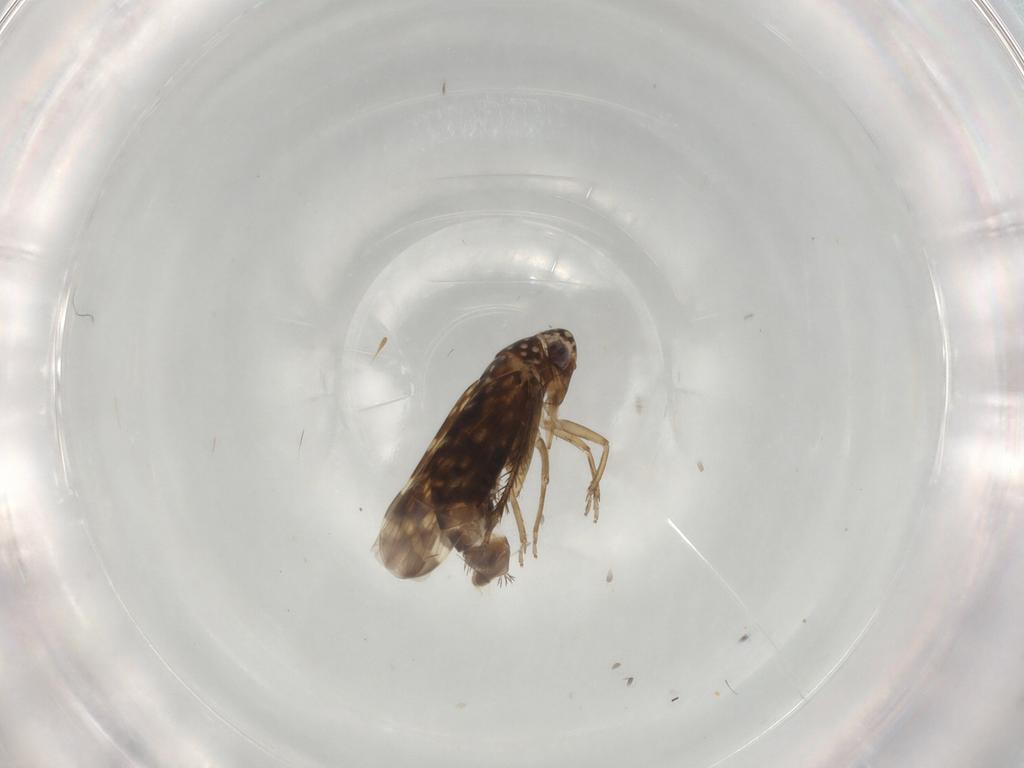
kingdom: Animalia
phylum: Arthropoda
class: Insecta
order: Hemiptera
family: Cicadellidae
